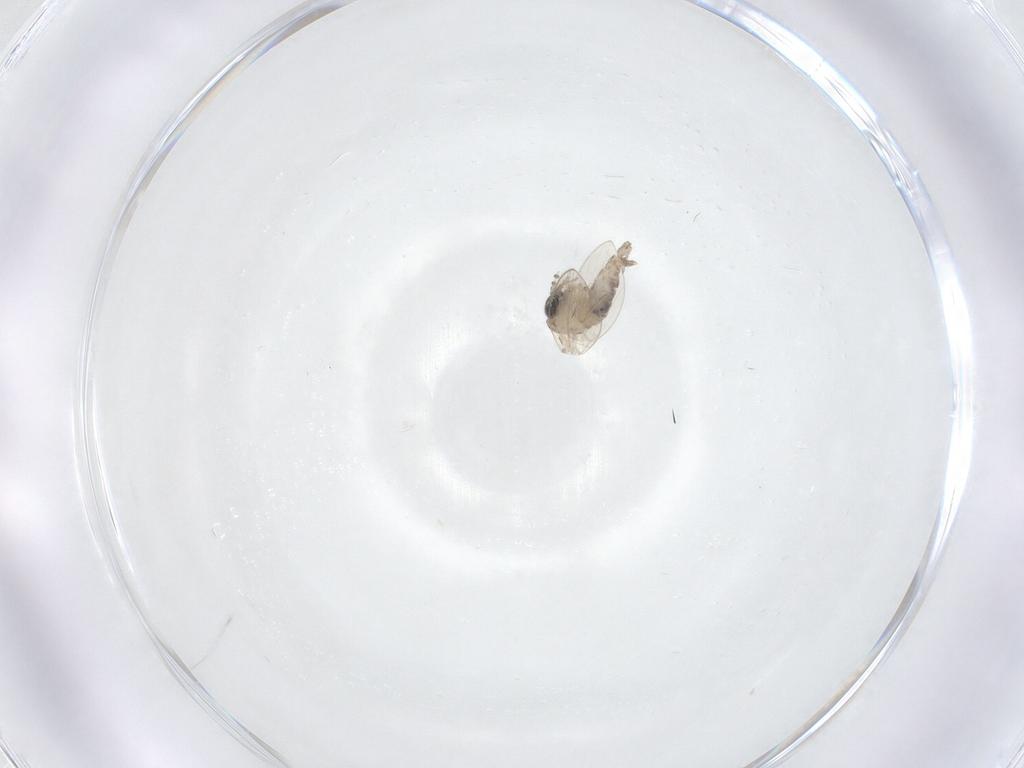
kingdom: Animalia
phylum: Arthropoda
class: Insecta
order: Diptera
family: Psychodidae
